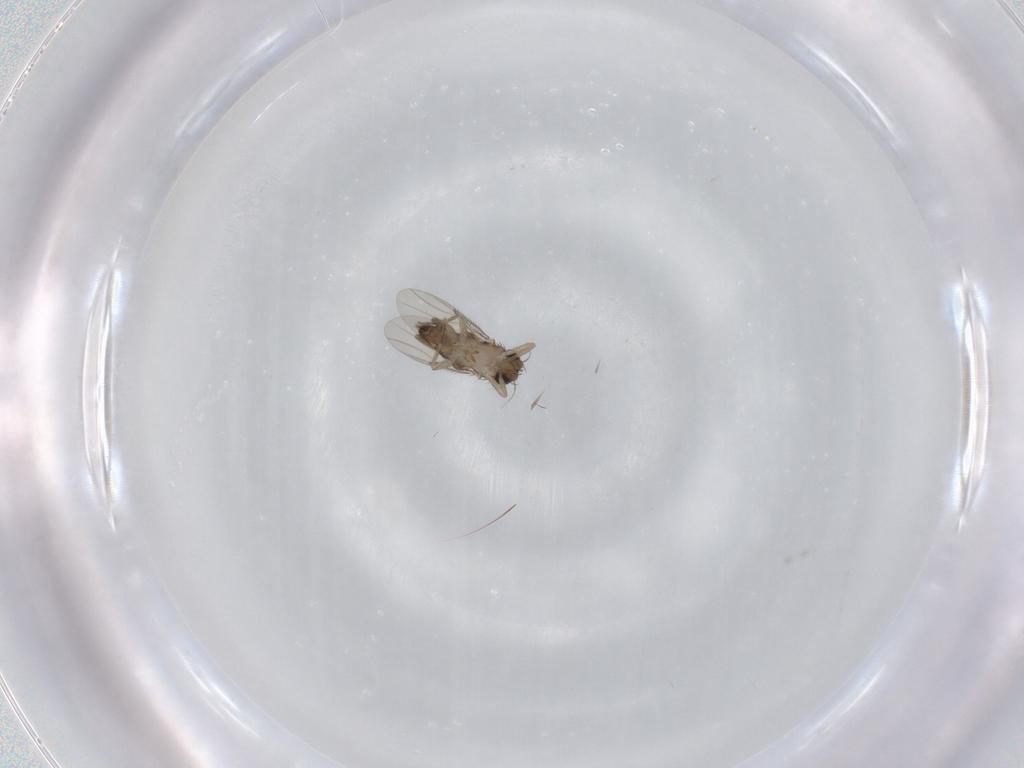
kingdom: Animalia
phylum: Arthropoda
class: Insecta
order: Diptera
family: Phoridae
